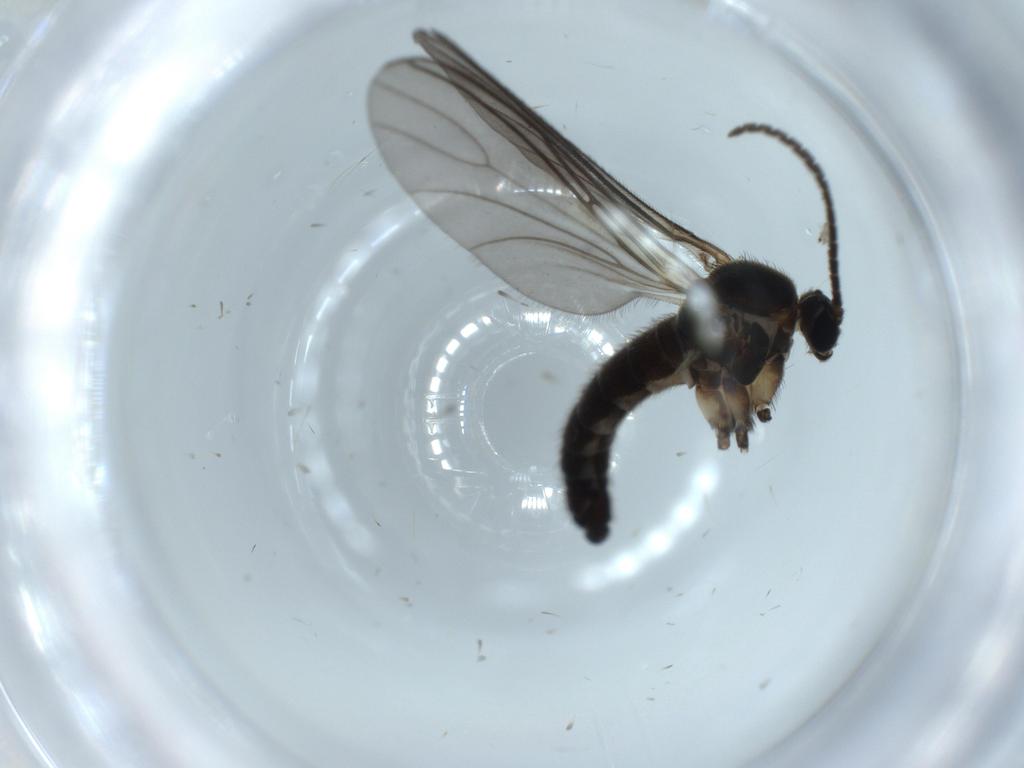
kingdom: Animalia
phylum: Arthropoda
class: Insecta
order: Diptera
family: Sciaridae
